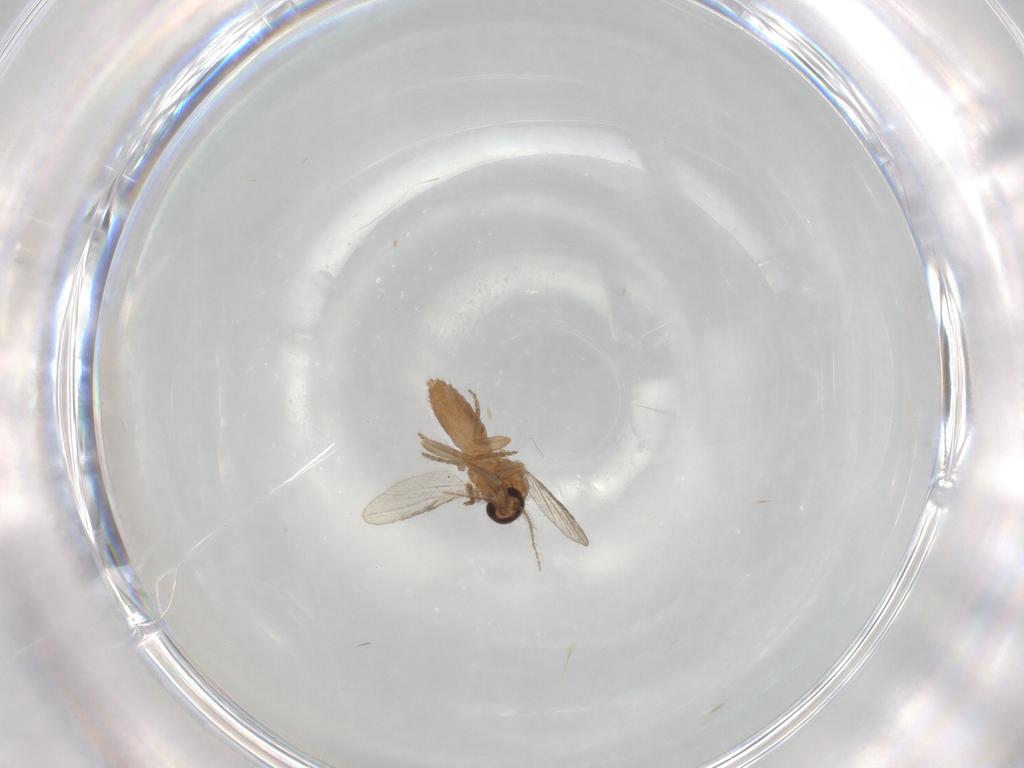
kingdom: Animalia
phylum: Arthropoda
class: Insecta
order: Diptera
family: Ceratopogonidae
